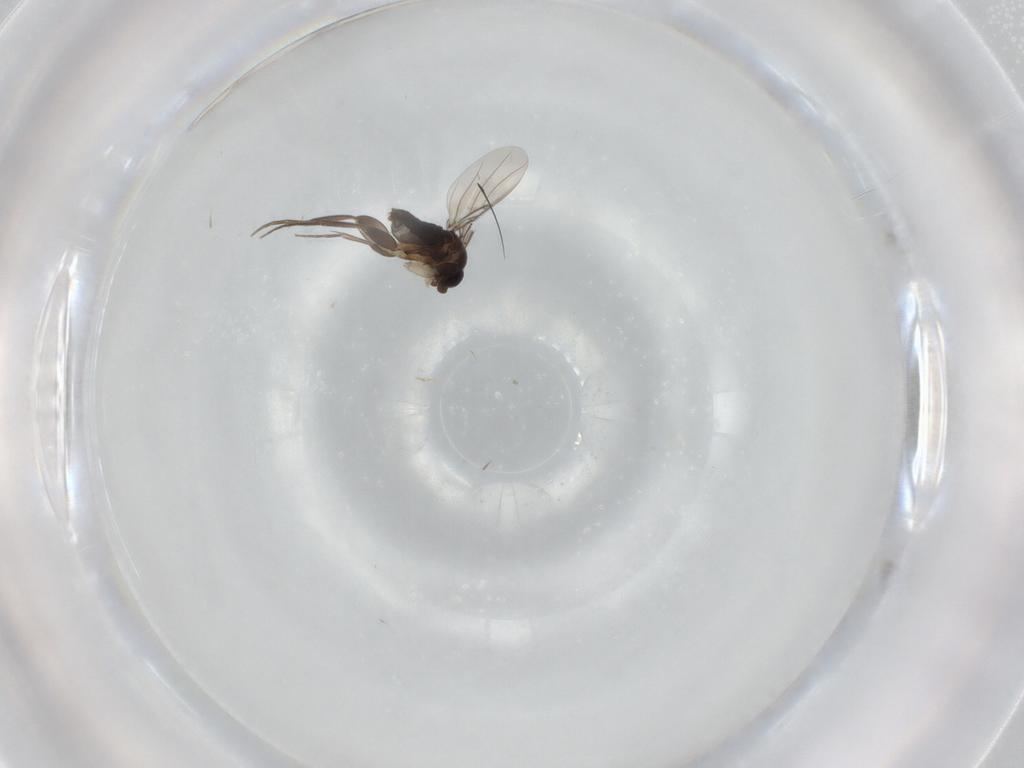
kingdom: Animalia
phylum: Arthropoda
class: Insecta
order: Diptera
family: Phoridae
